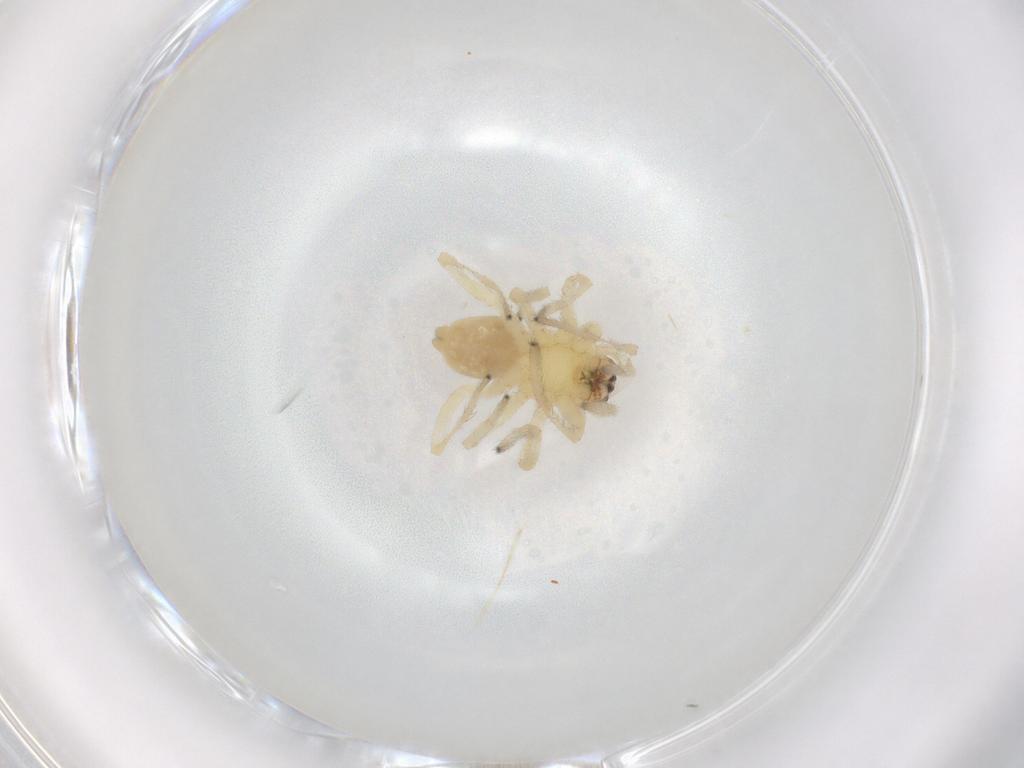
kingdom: Animalia
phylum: Arthropoda
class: Arachnida
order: Araneae
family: Cheiracanthiidae
